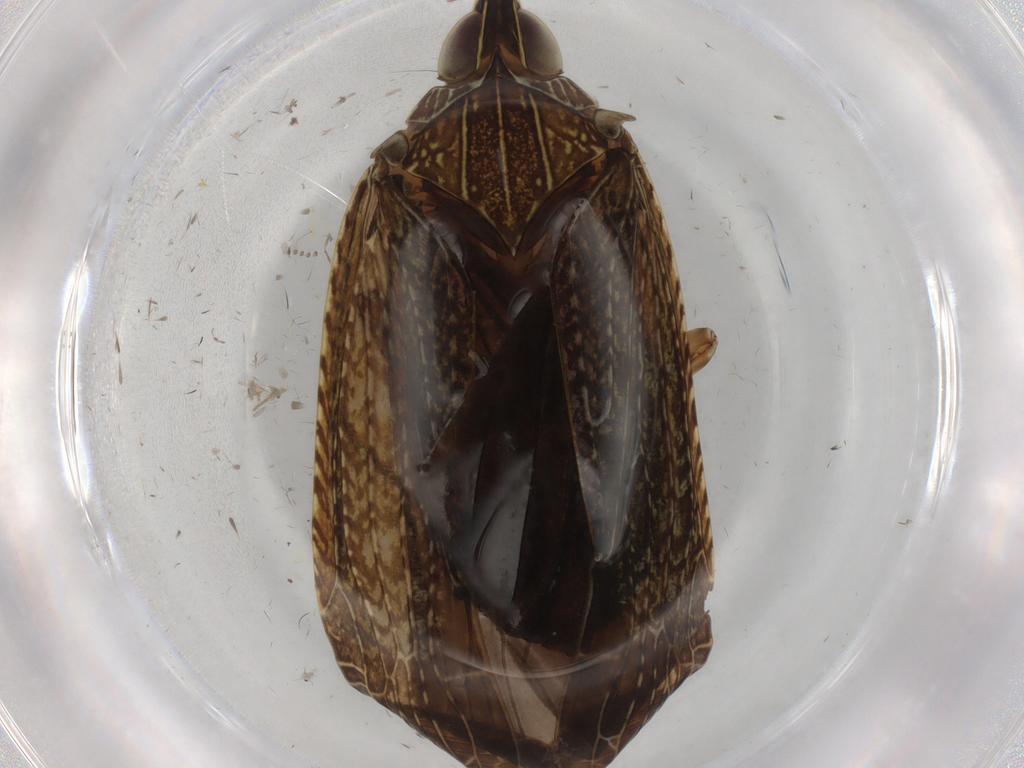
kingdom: Animalia
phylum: Arthropoda
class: Insecta
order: Hemiptera
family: Achilidae
